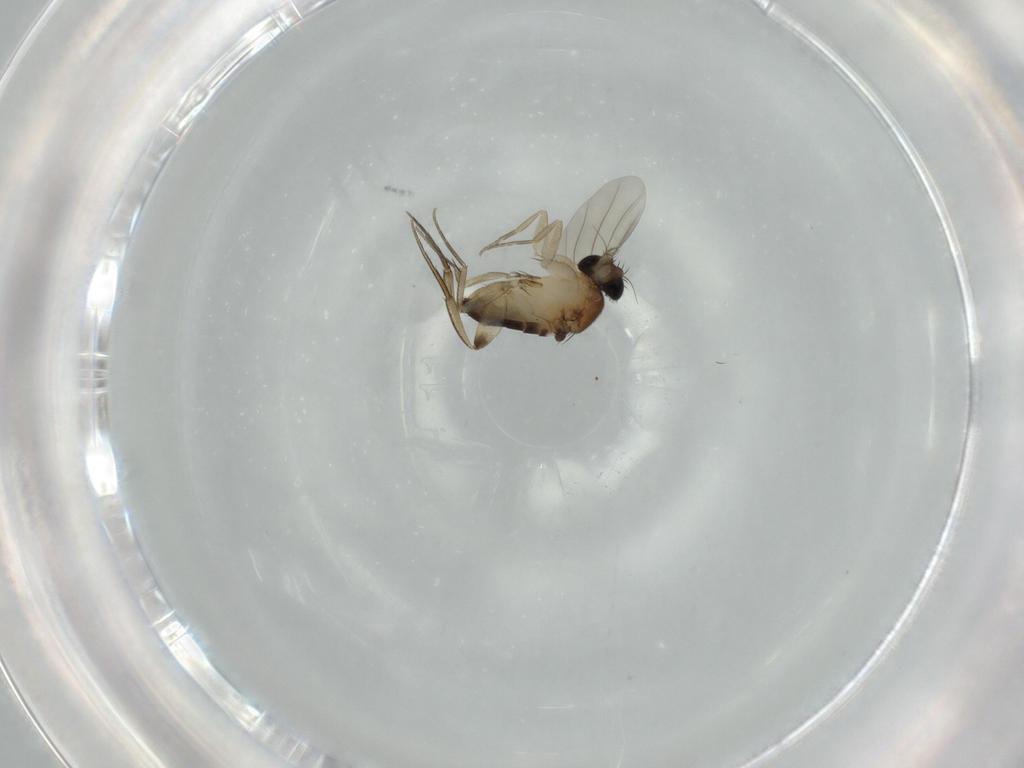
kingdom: Animalia
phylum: Arthropoda
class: Insecta
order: Diptera
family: Phoridae
